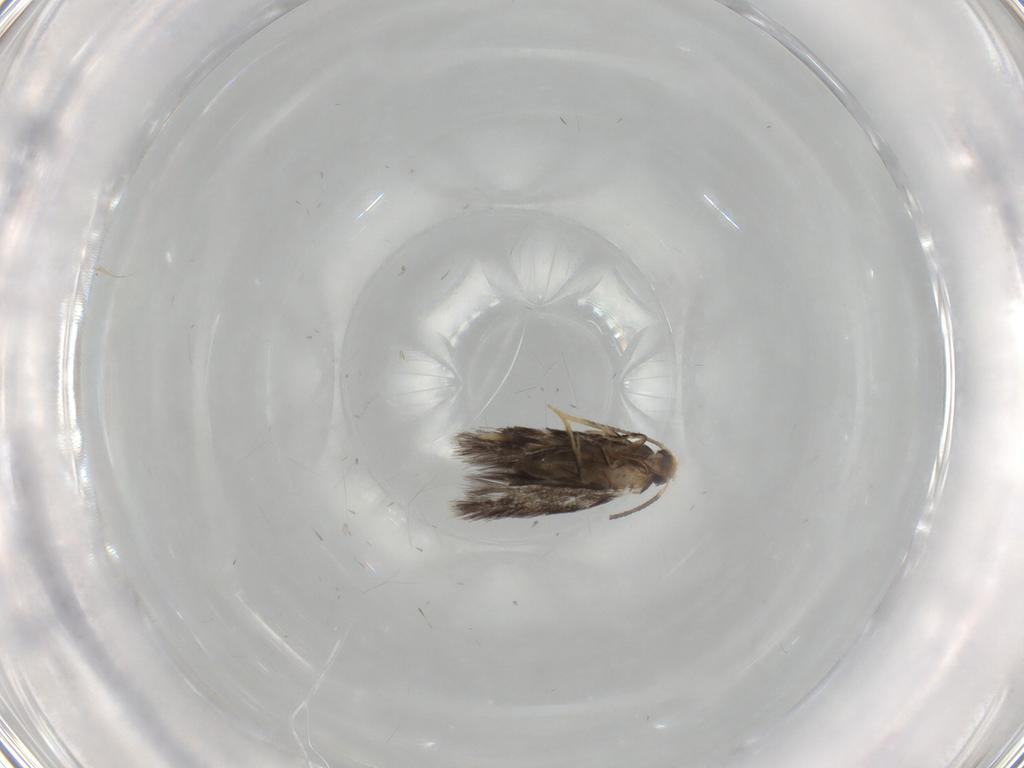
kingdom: Animalia
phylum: Arthropoda
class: Insecta
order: Lepidoptera
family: Nepticulidae
